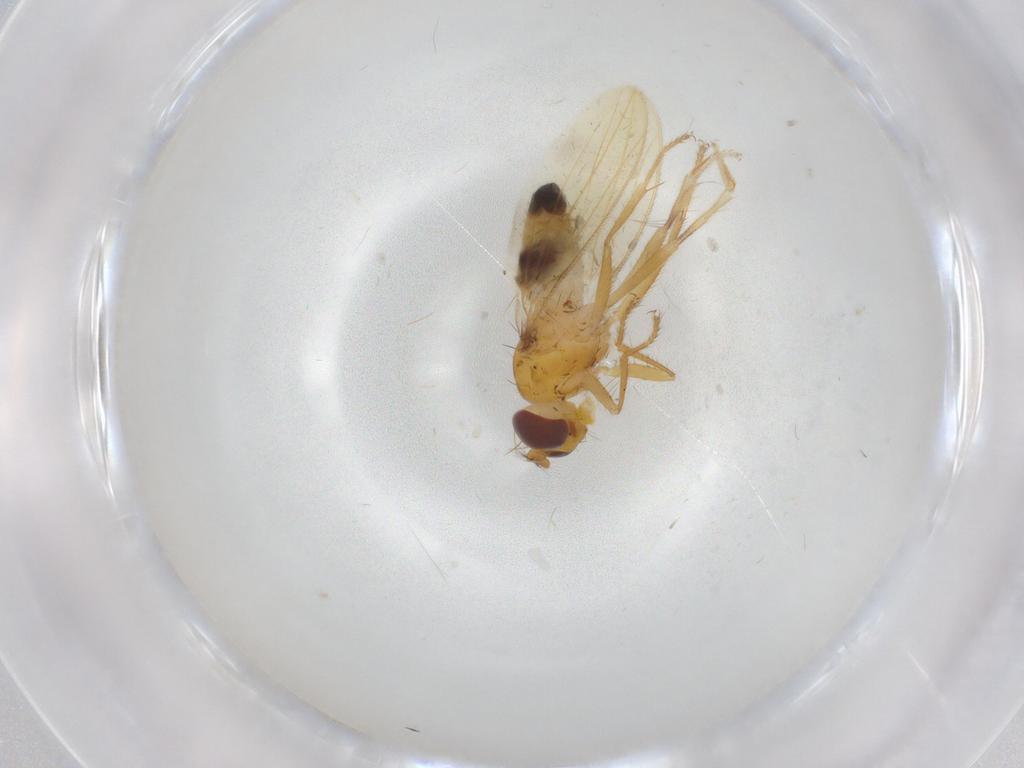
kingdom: Animalia
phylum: Arthropoda
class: Insecta
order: Diptera
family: Periscelididae
